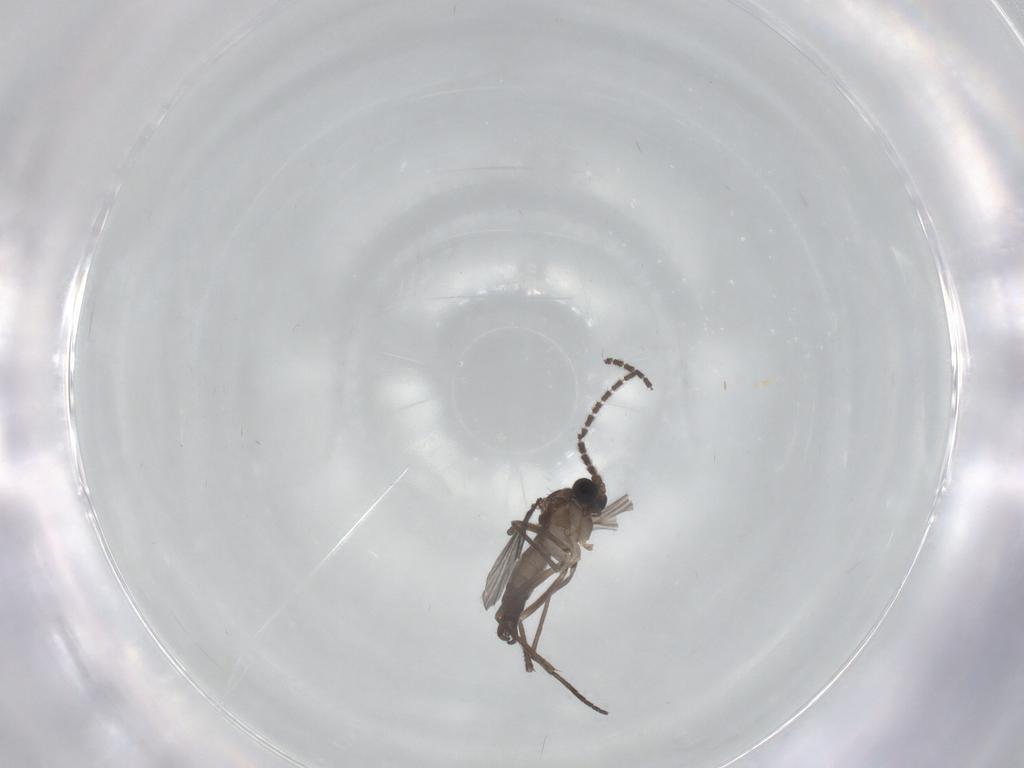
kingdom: Animalia
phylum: Arthropoda
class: Insecta
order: Diptera
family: Sciaridae
